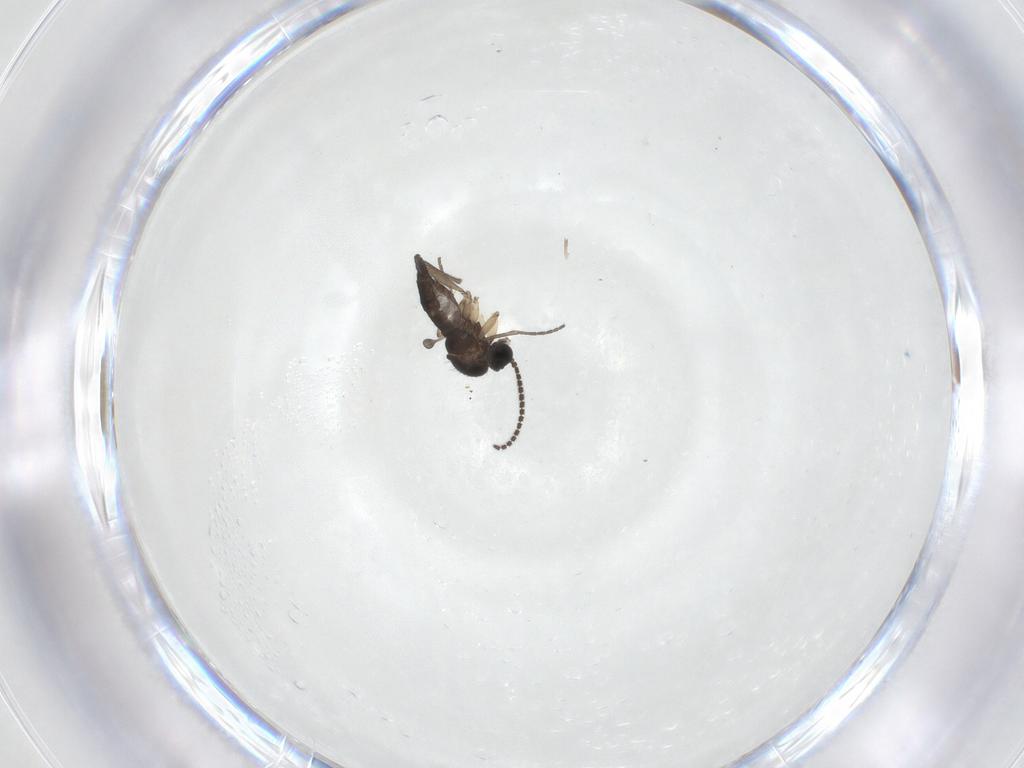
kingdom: Animalia
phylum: Arthropoda
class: Insecta
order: Diptera
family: Sciaridae
